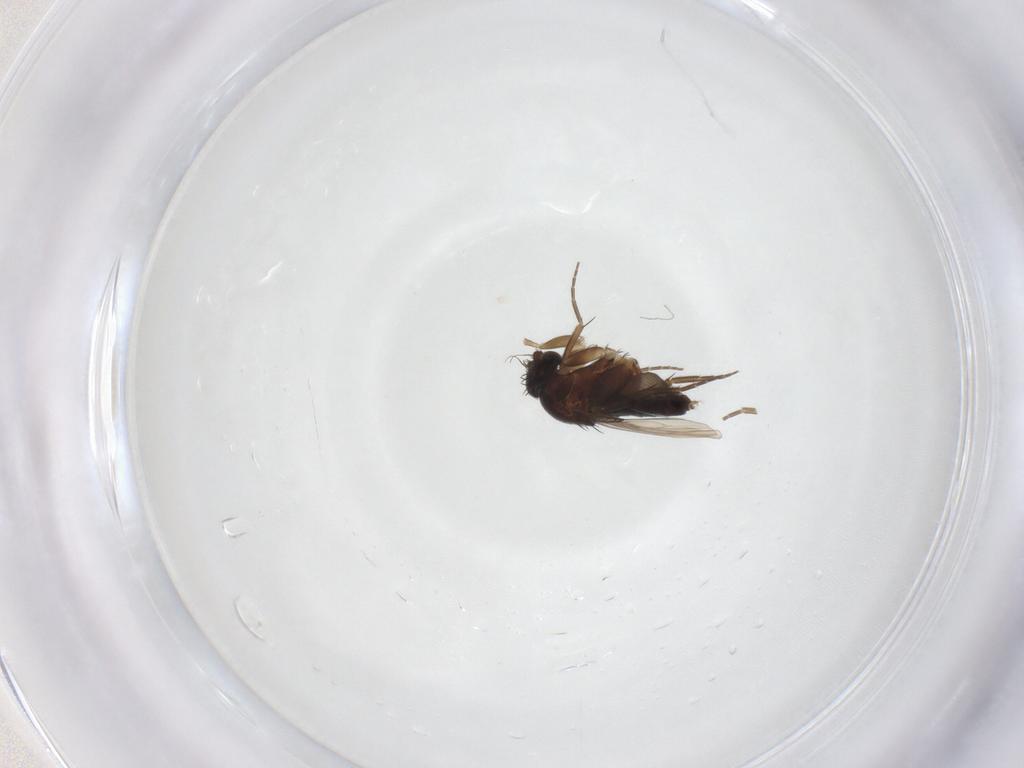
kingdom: Animalia
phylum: Arthropoda
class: Insecta
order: Diptera
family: Phoridae
